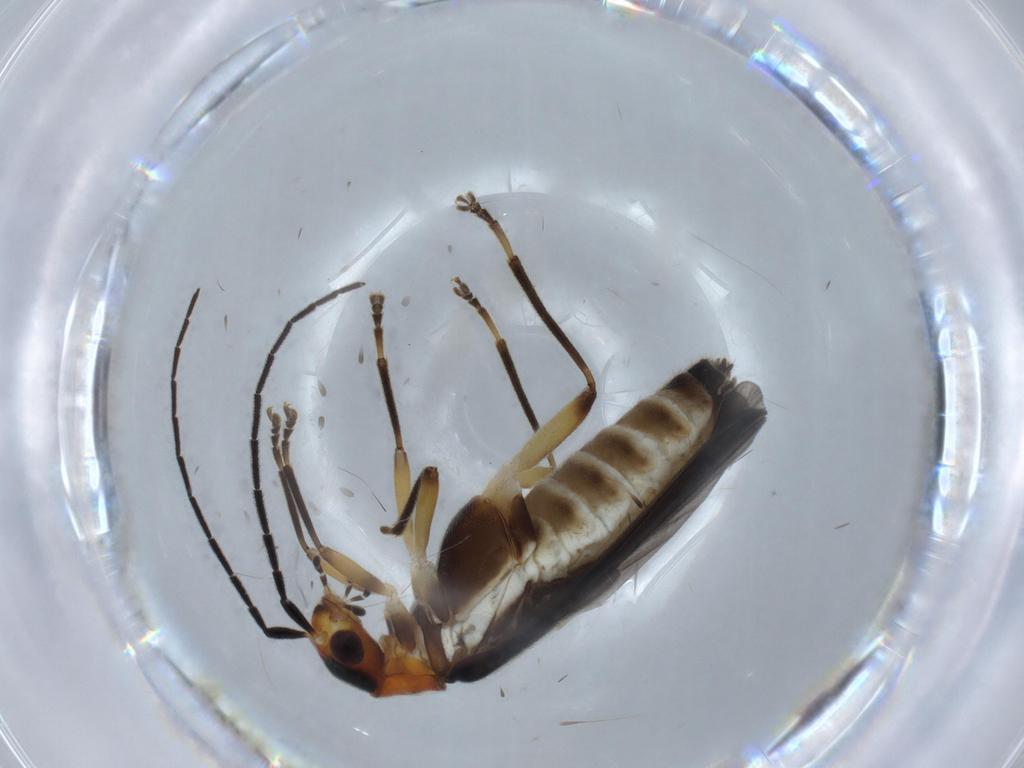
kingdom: Animalia
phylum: Arthropoda
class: Insecta
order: Coleoptera
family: Cantharidae
